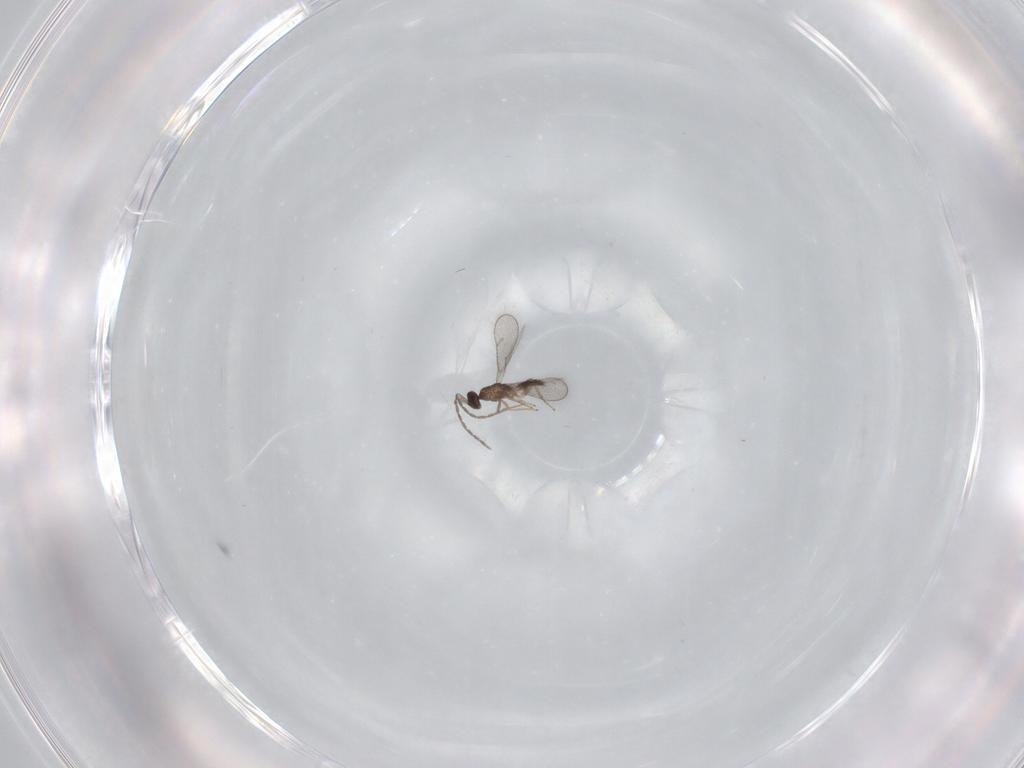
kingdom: Animalia
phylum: Arthropoda
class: Insecta
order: Hymenoptera
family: Eulophidae
